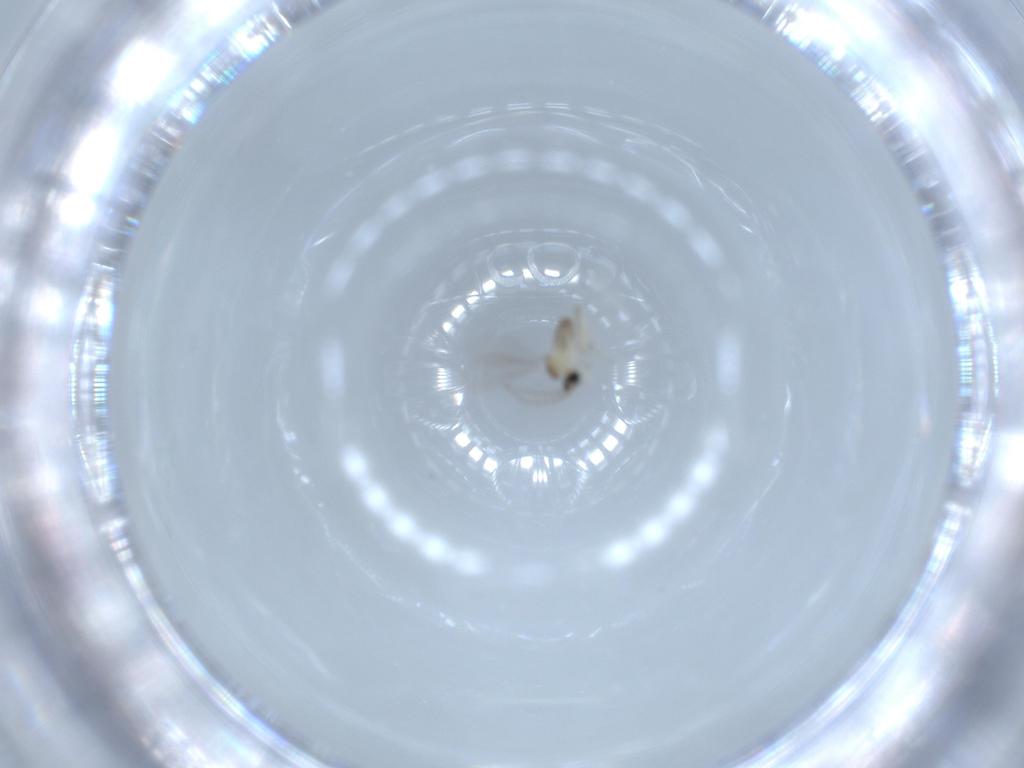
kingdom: Animalia
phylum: Arthropoda
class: Insecta
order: Diptera
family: Cecidomyiidae
